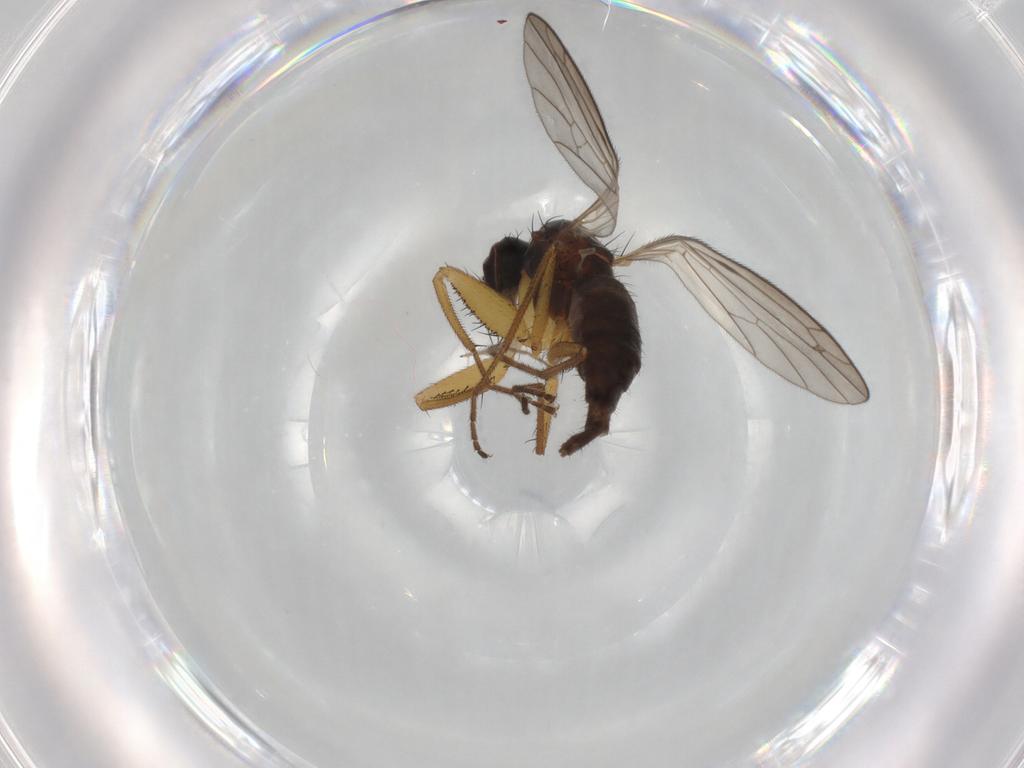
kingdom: Animalia
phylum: Arthropoda
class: Insecta
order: Diptera
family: Empididae
